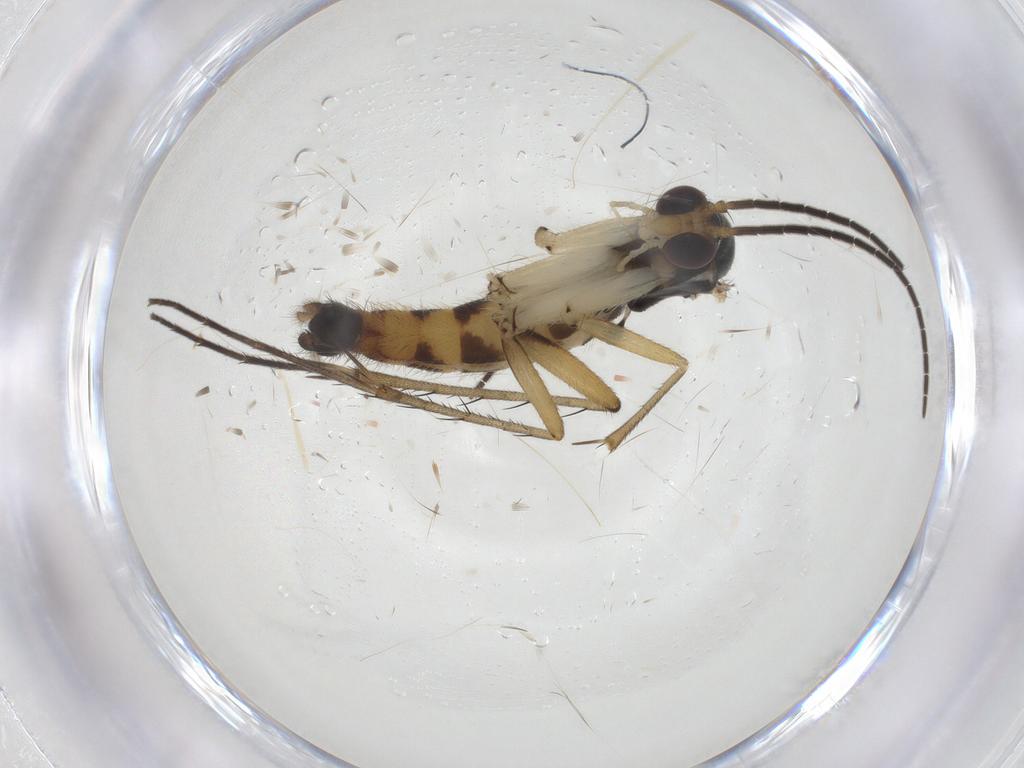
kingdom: Animalia
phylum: Arthropoda
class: Insecta
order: Diptera
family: Mycetophilidae
